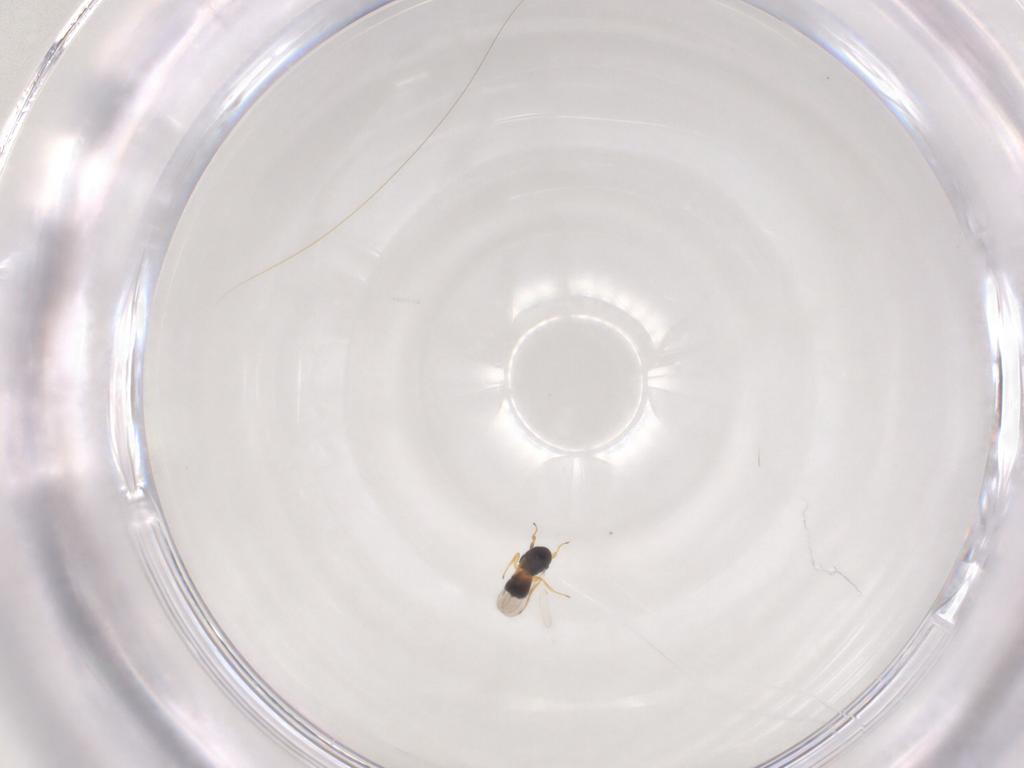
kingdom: Animalia
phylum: Arthropoda
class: Insecta
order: Hymenoptera
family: Scelionidae
